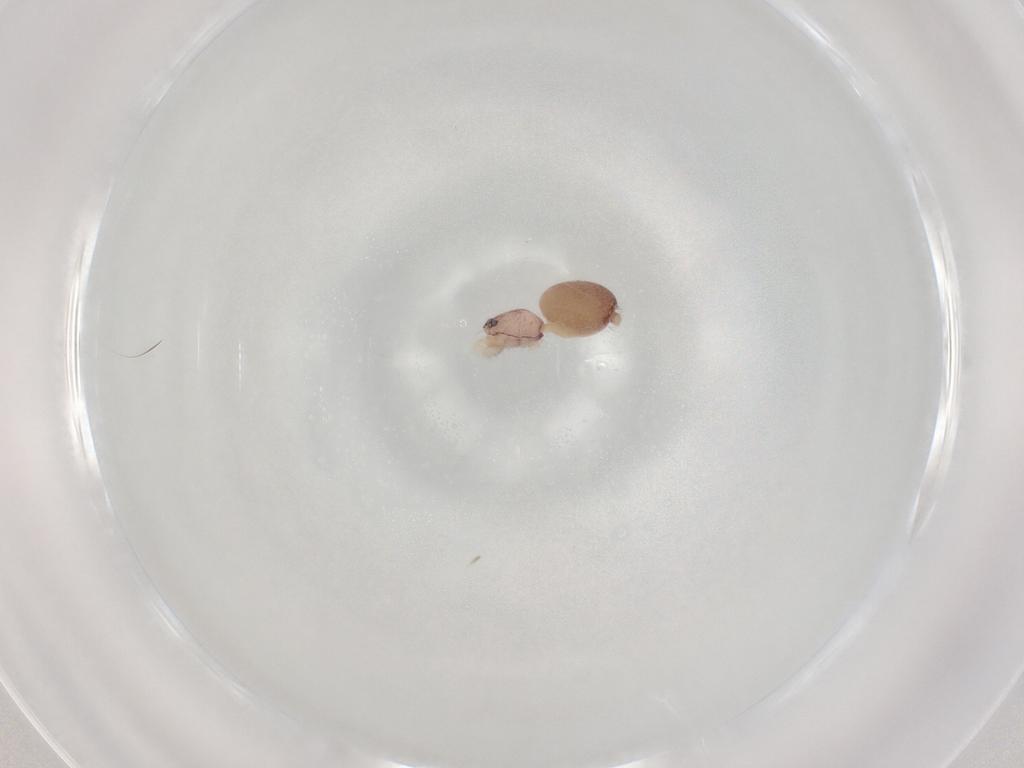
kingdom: Animalia
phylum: Arthropoda
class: Arachnida
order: Araneae
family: Idiopidae
